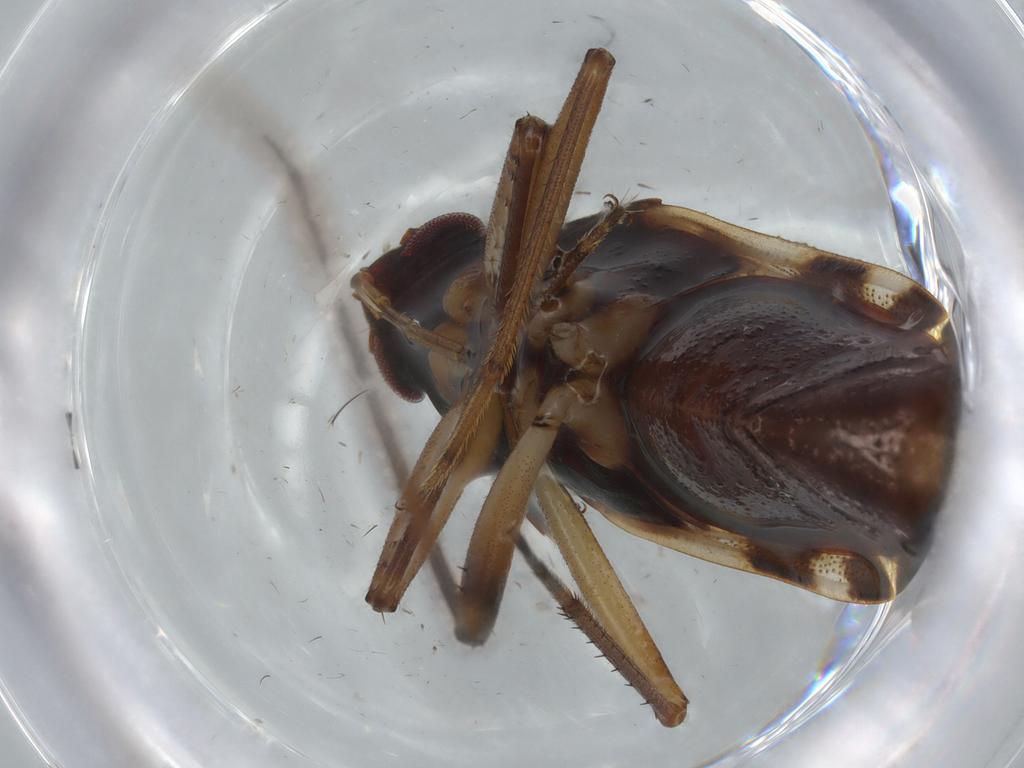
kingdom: Animalia
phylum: Arthropoda
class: Insecta
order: Hemiptera
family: Rhyparochromidae
